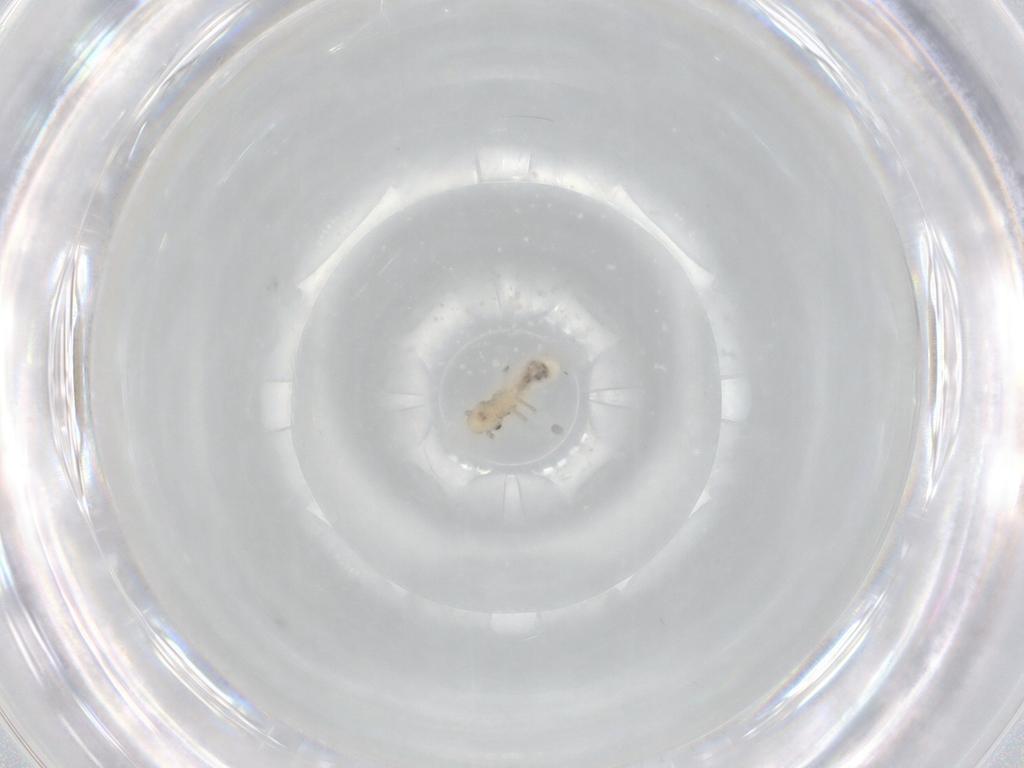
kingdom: Animalia
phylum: Arthropoda
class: Insecta
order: Psocodea
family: Caeciliusidae
